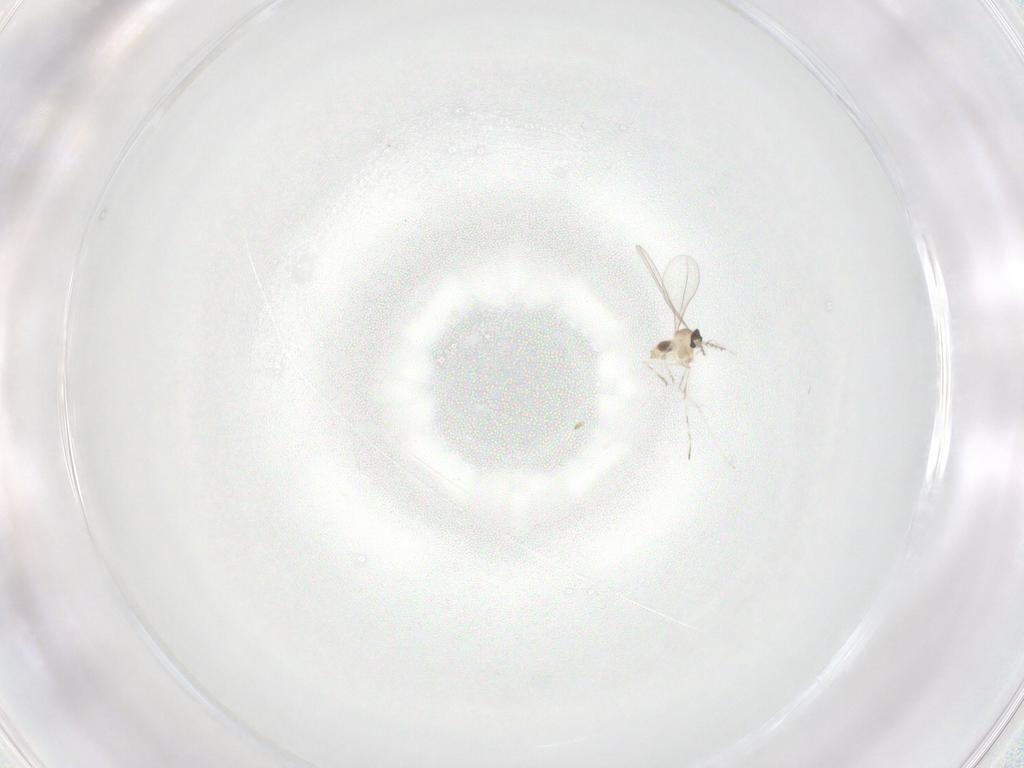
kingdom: Animalia
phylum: Arthropoda
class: Insecta
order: Diptera
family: Cecidomyiidae
